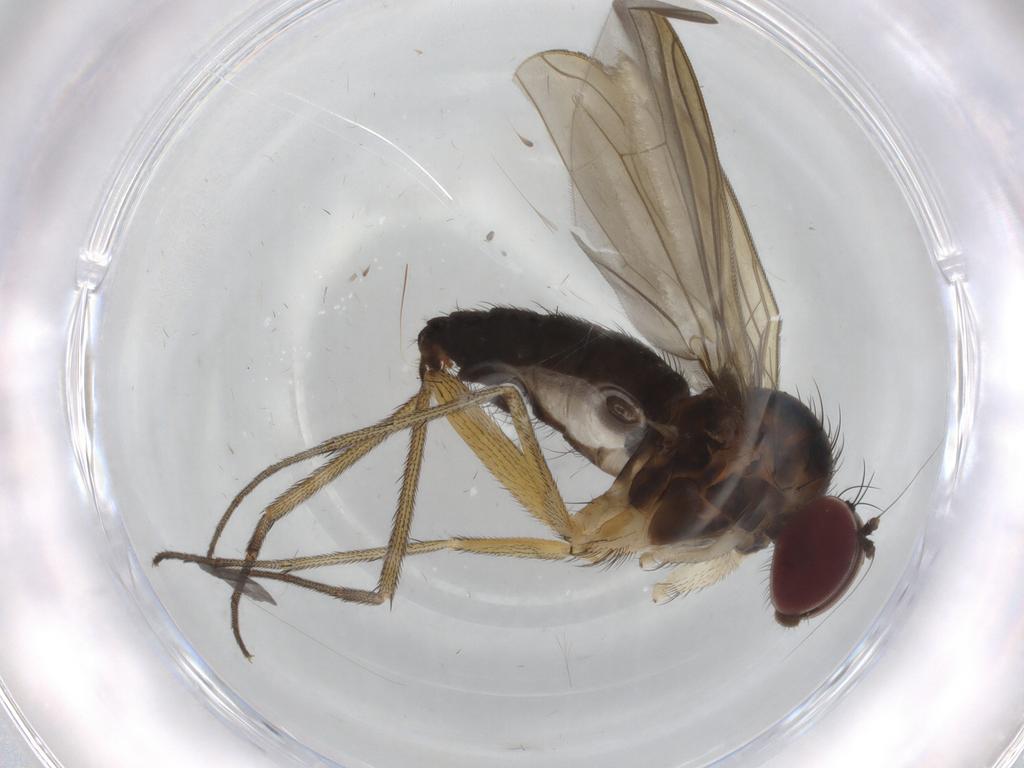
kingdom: Animalia
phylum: Arthropoda
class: Insecta
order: Diptera
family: Dolichopodidae
